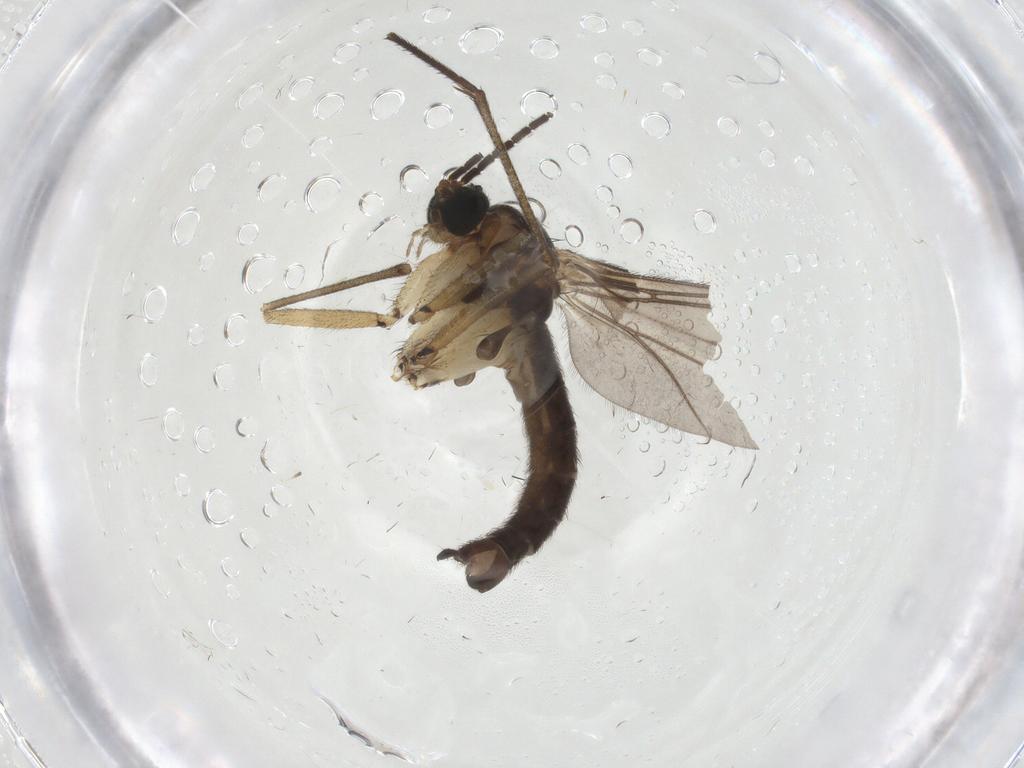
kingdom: Animalia
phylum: Arthropoda
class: Insecta
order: Diptera
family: Sciaridae
